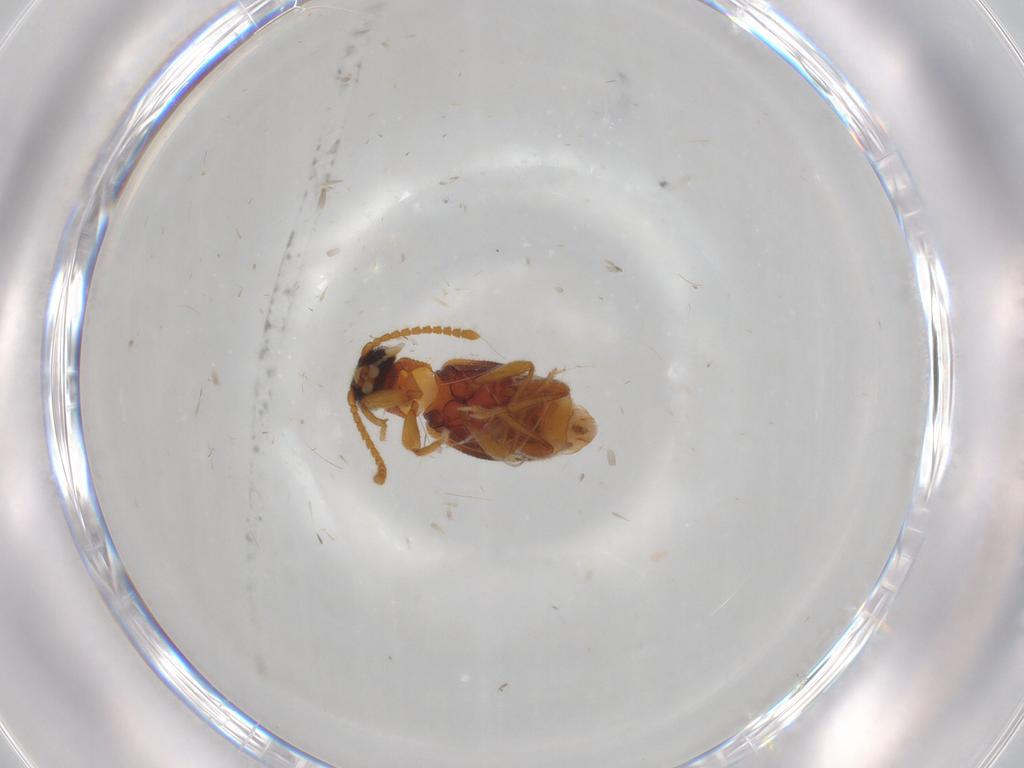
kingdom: Animalia
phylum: Arthropoda
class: Insecta
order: Coleoptera
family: Aderidae
